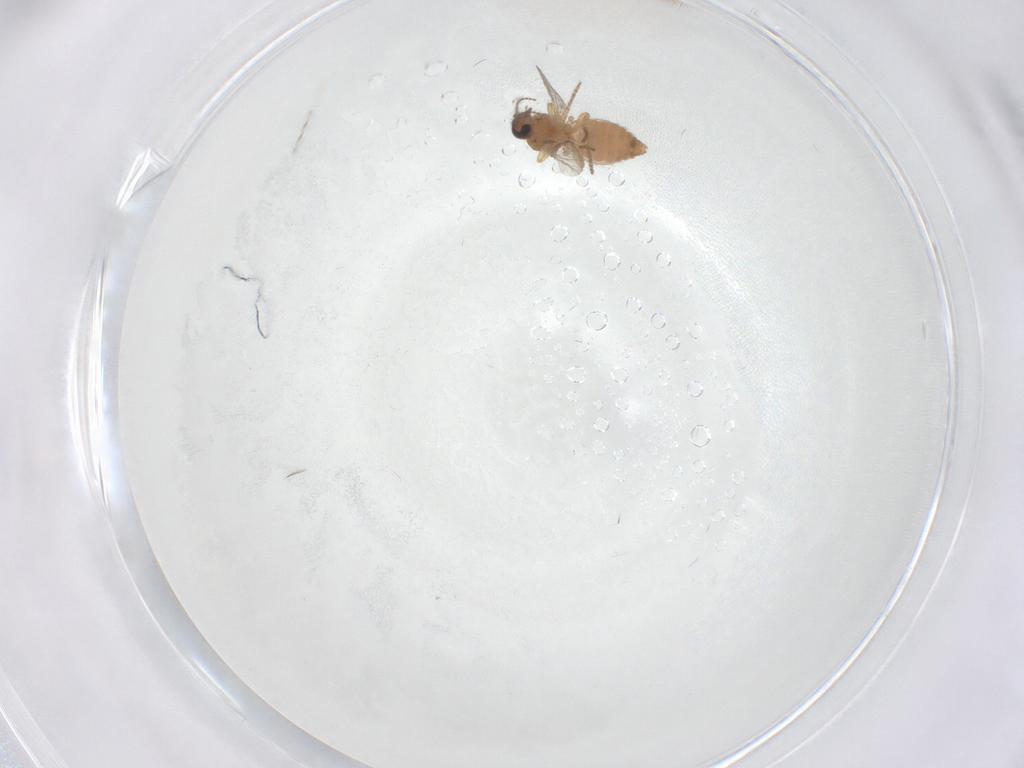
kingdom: Animalia
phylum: Arthropoda
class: Insecta
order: Diptera
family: Ceratopogonidae
